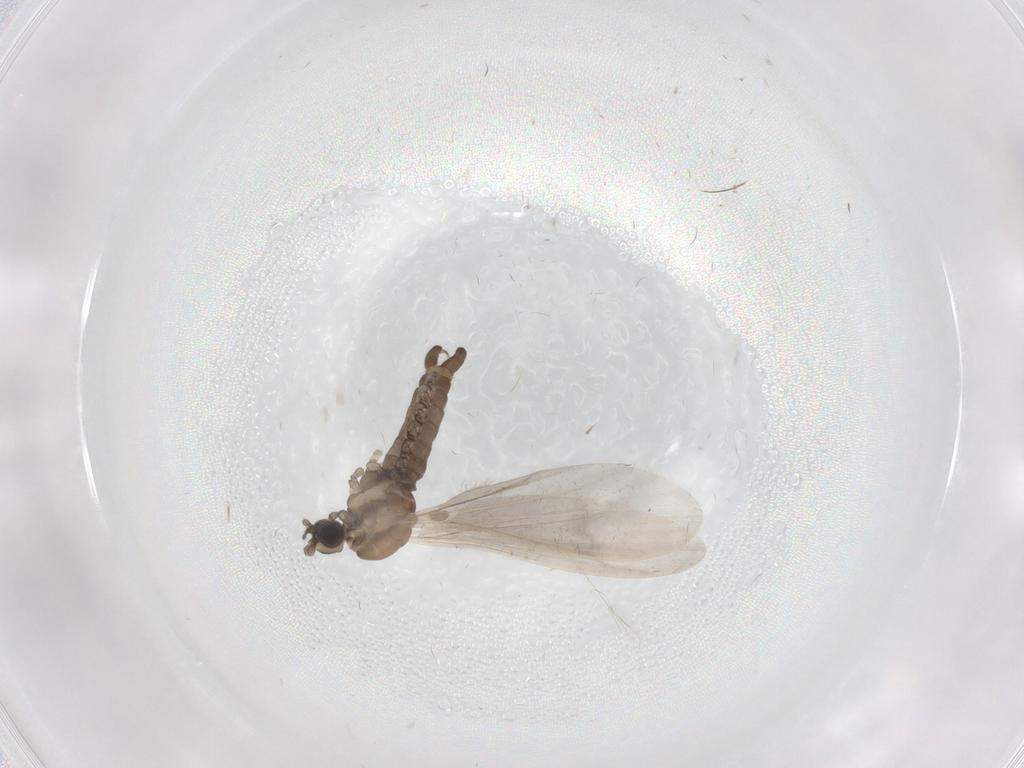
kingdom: Animalia
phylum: Arthropoda
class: Insecta
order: Diptera
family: Limoniidae
